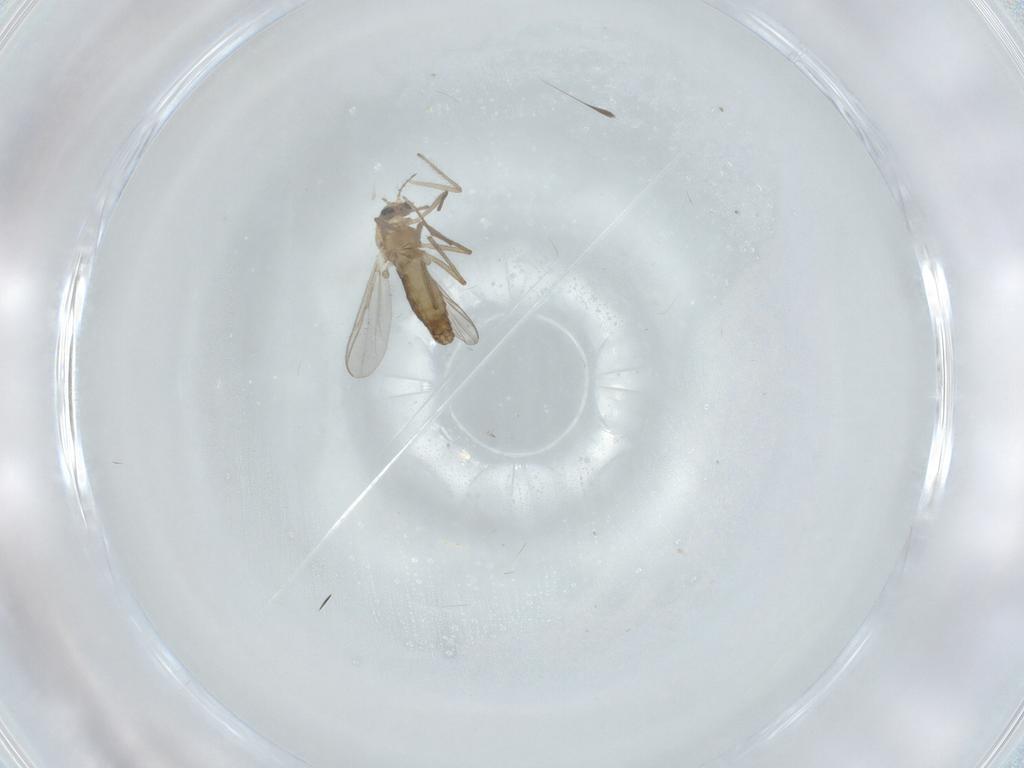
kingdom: Animalia
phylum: Arthropoda
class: Insecta
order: Diptera
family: Chironomidae
